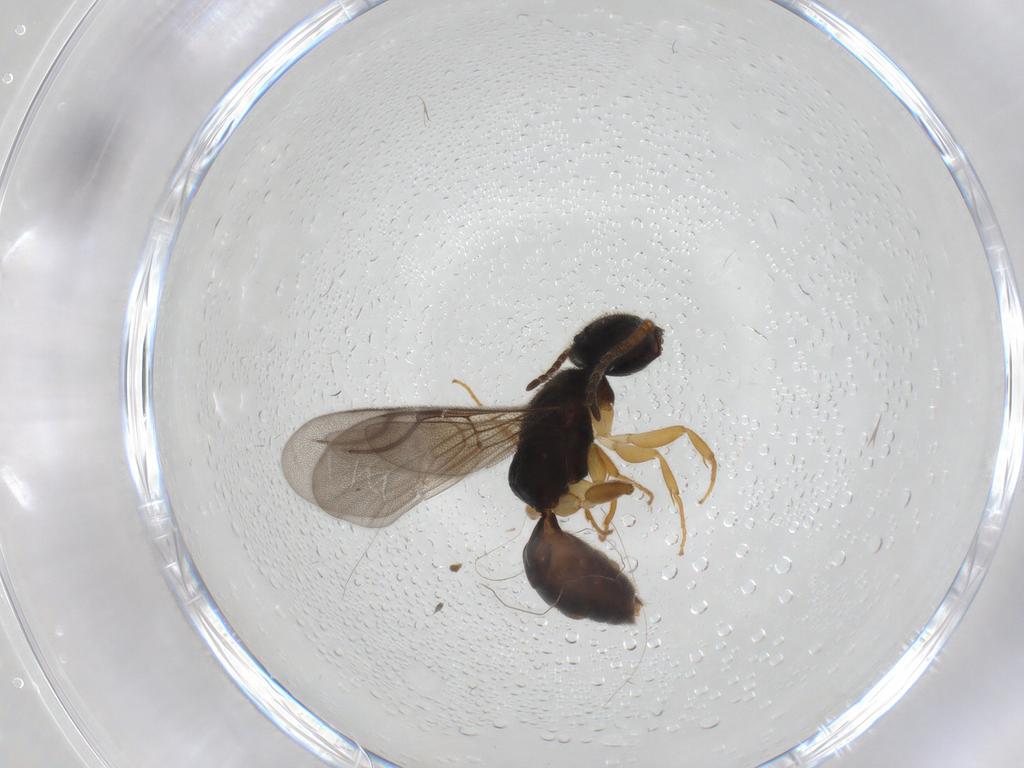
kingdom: Animalia
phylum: Arthropoda
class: Insecta
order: Hymenoptera
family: Bethylidae
